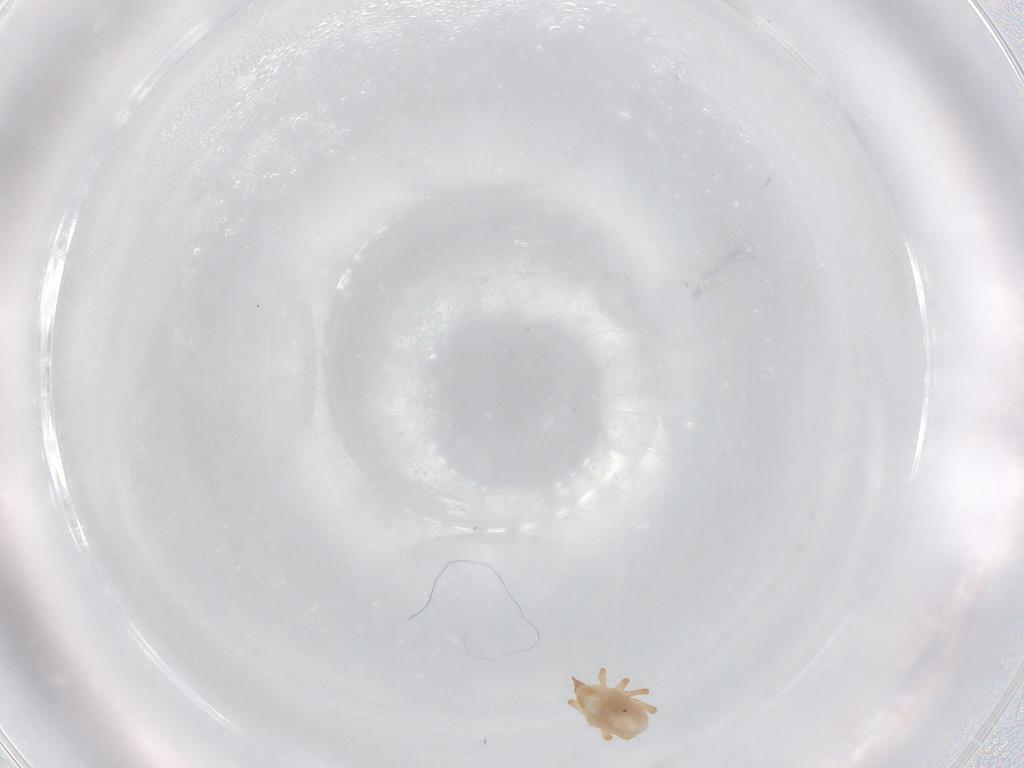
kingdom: Animalia
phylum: Arthropoda
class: Arachnida
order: Trombidiformes
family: Bdellidae
